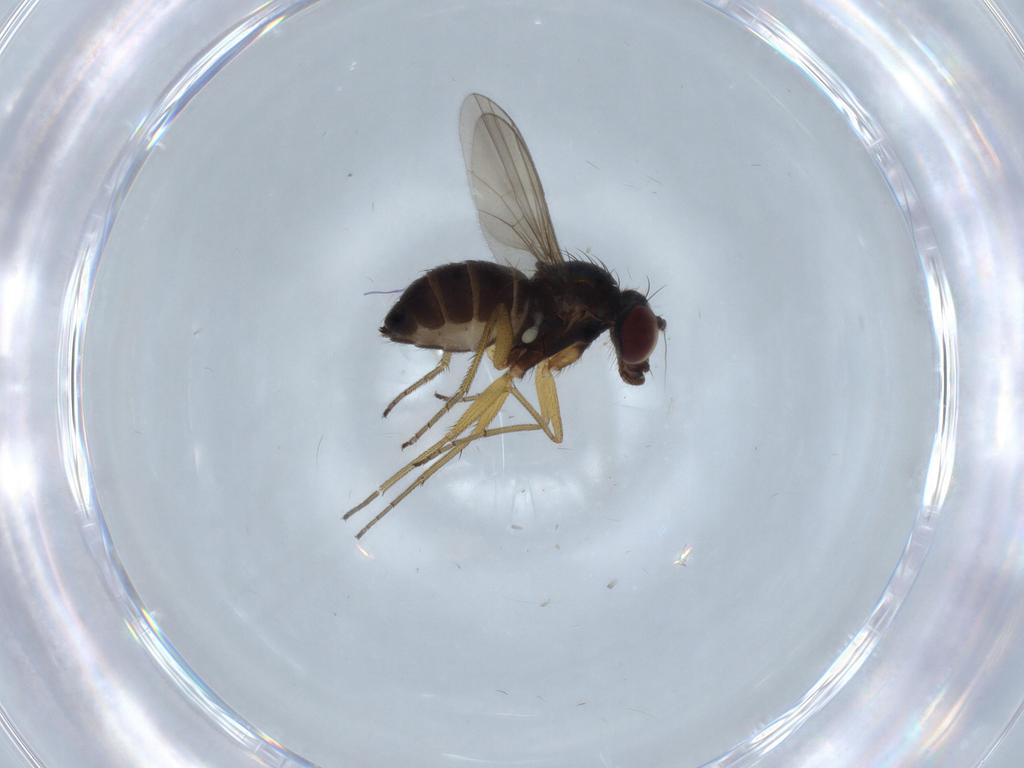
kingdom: Animalia
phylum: Arthropoda
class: Insecta
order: Diptera
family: Dolichopodidae
